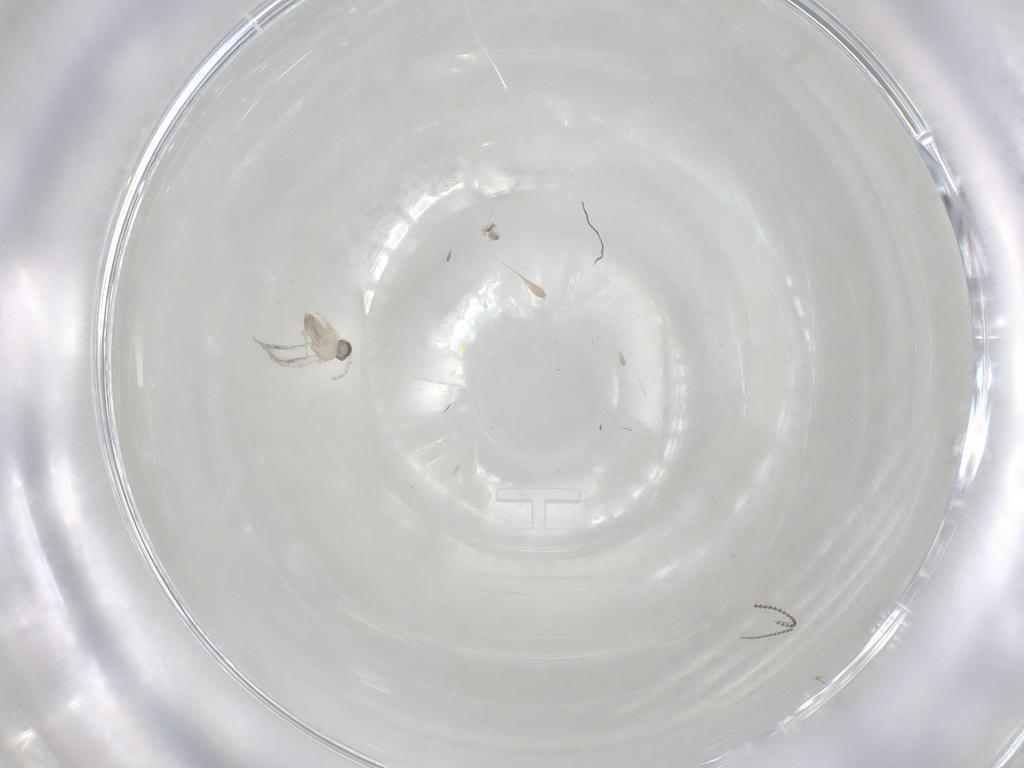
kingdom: Animalia
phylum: Arthropoda
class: Insecta
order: Diptera
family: Cecidomyiidae
